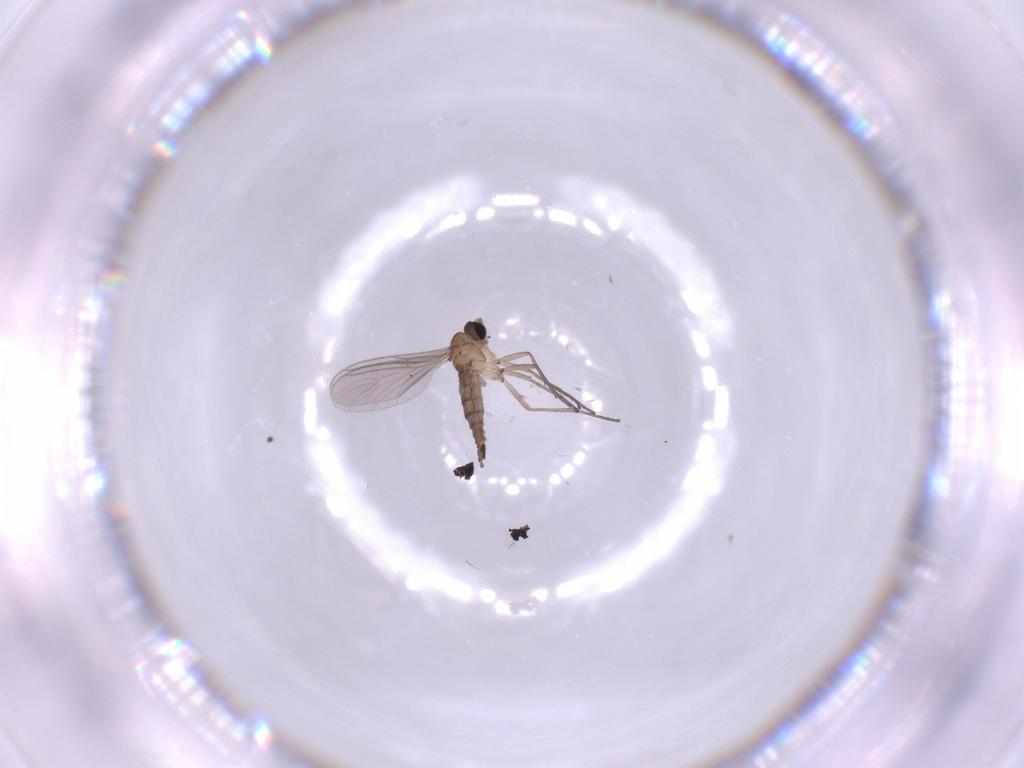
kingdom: Animalia
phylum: Arthropoda
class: Insecta
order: Diptera
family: Sciaridae
